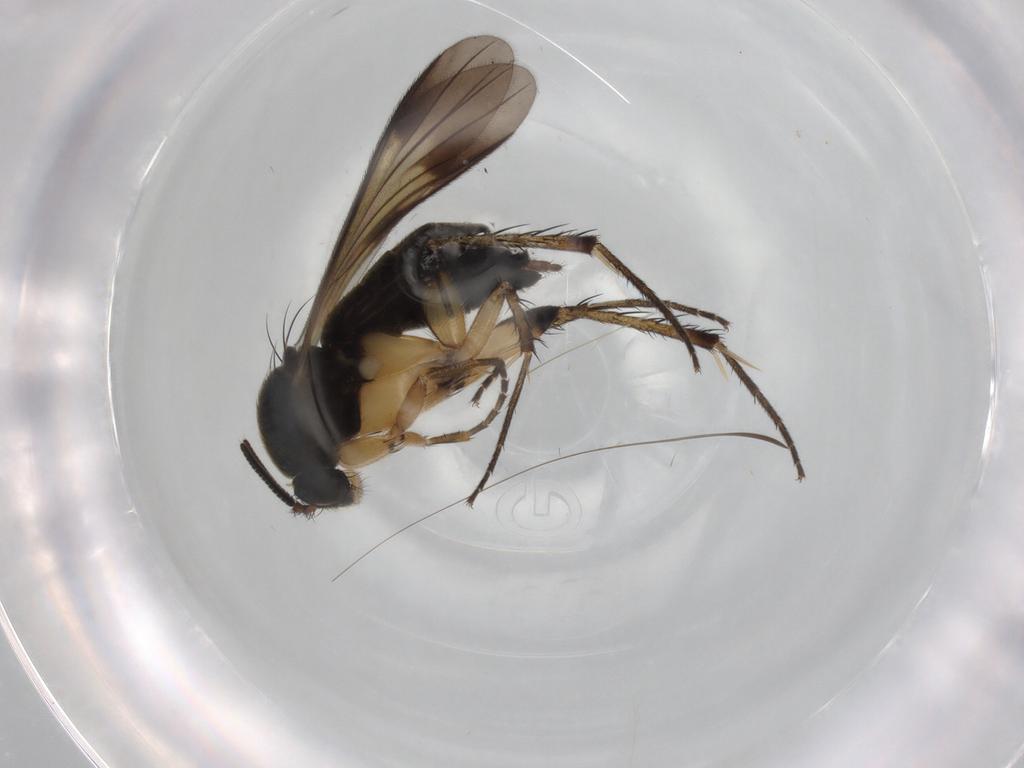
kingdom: Animalia
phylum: Arthropoda
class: Insecta
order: Diptera
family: Mycetophilidae
